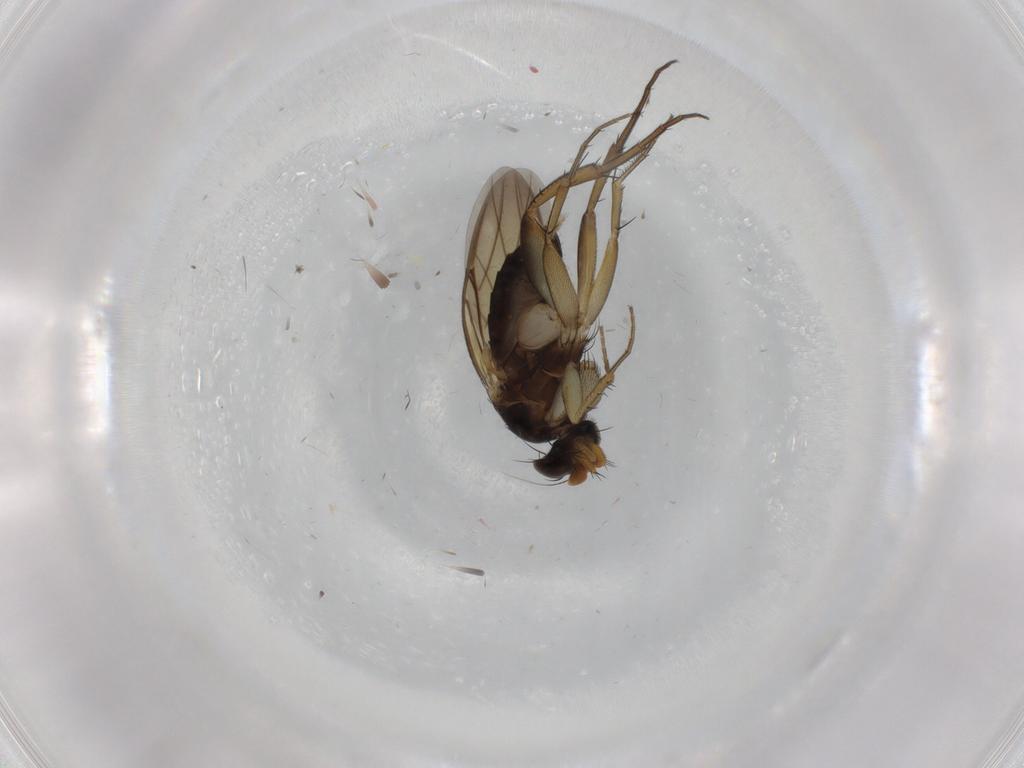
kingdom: Animalia
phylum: Arthropoda
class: Insecta
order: Diptera
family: Phoridae
